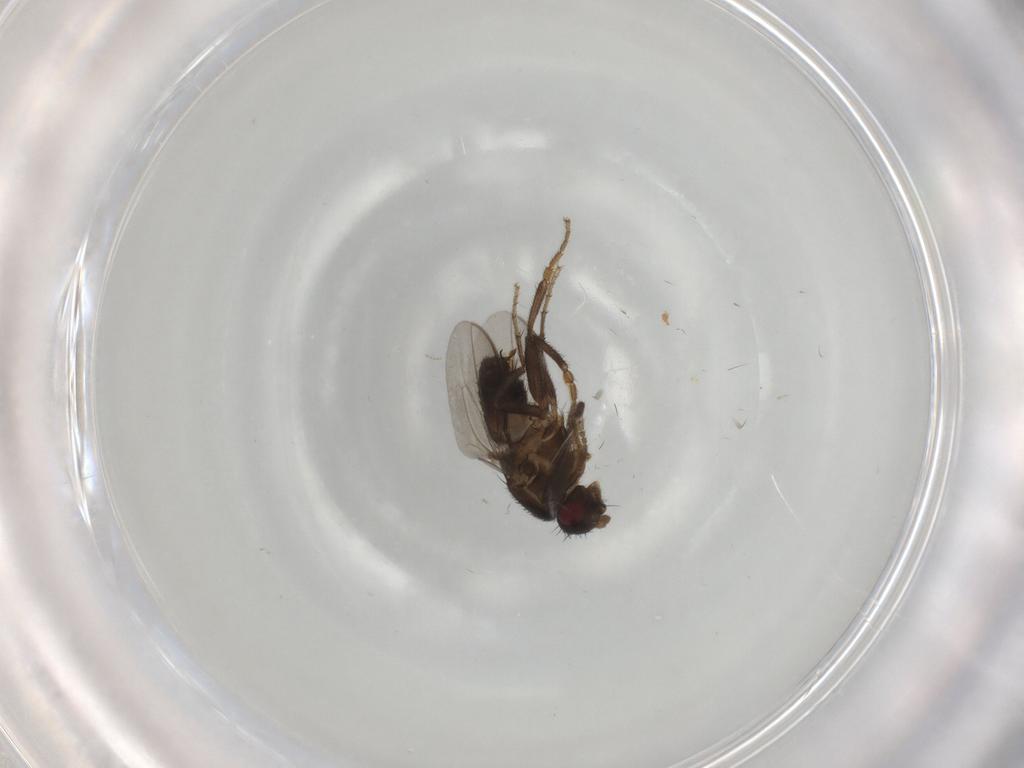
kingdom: Animalia
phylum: Arthropoda
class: Insecta
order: Diptera
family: Sphaeroceridae
